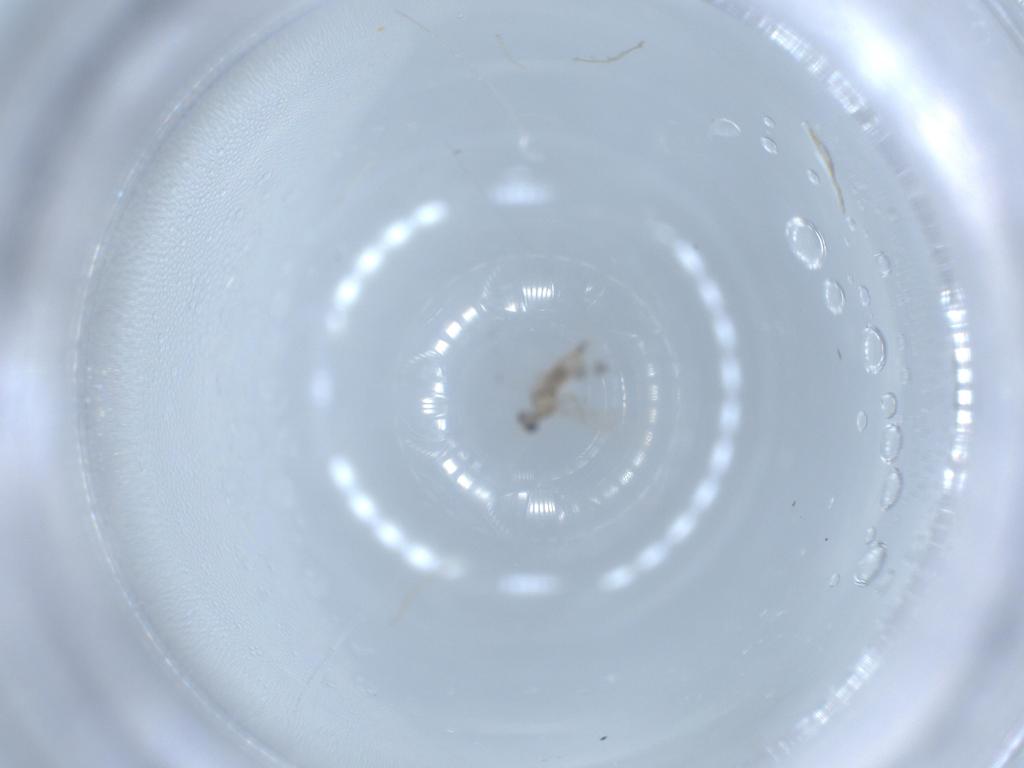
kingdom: Animalia
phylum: Arthropoda
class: Insecta
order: Diptera
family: Cecidomyiidae
